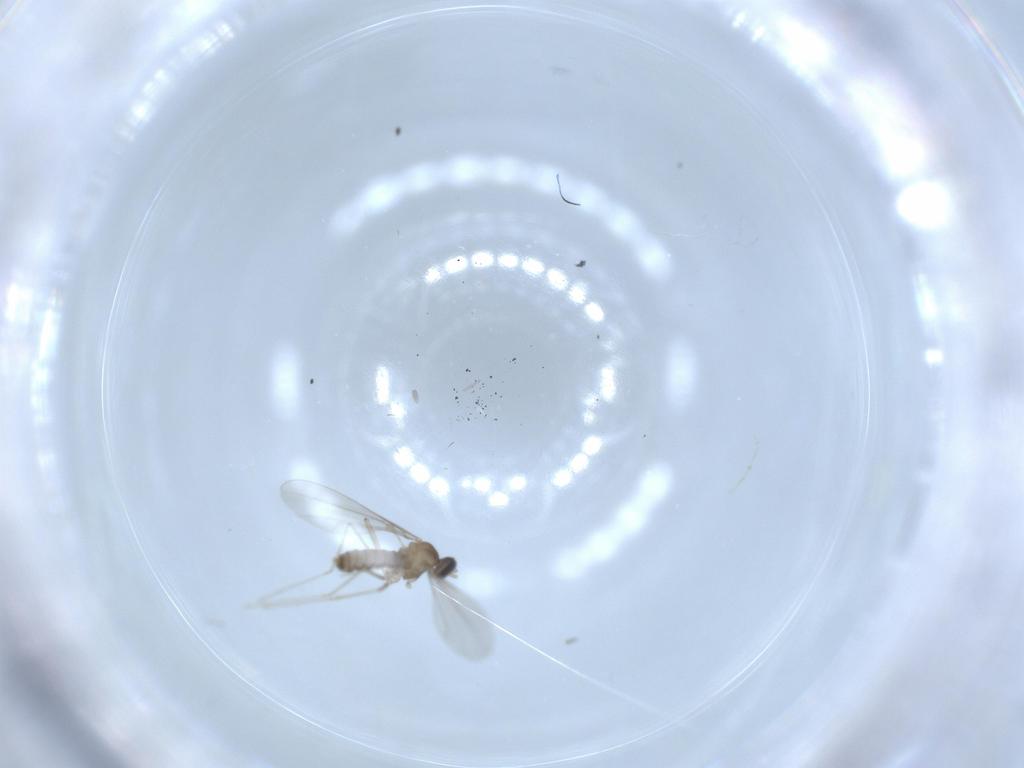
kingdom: Animalia
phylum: Arthropoda
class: Insecta
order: Diptera
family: Cecidomyiidae
